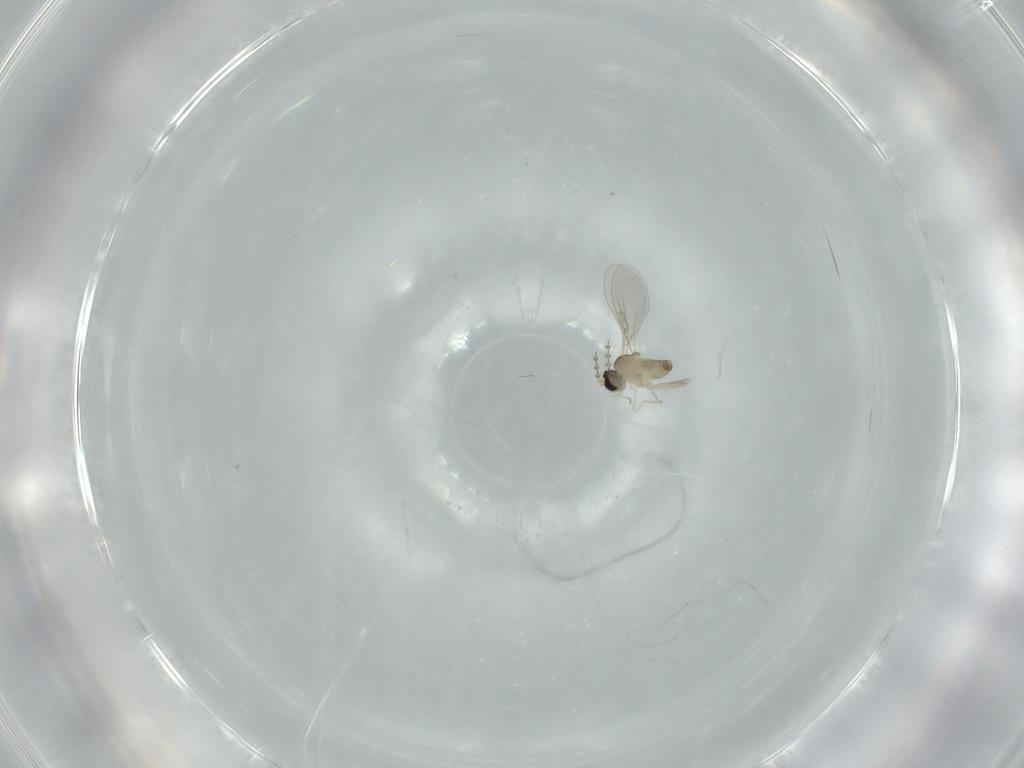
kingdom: Animalia
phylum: Arthropoda
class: Insecta
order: Diptera
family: Cecidomyiidae
